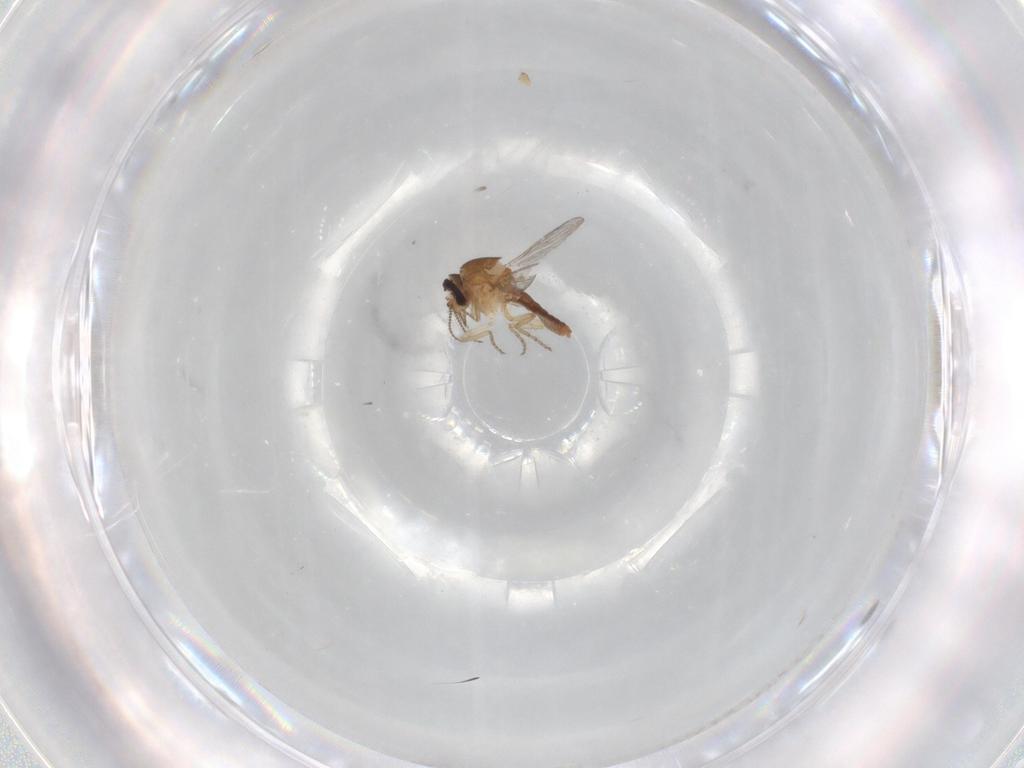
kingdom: Animalia
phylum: Arthropoda
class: Insecta
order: Diptera
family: Ceratopogonidae
